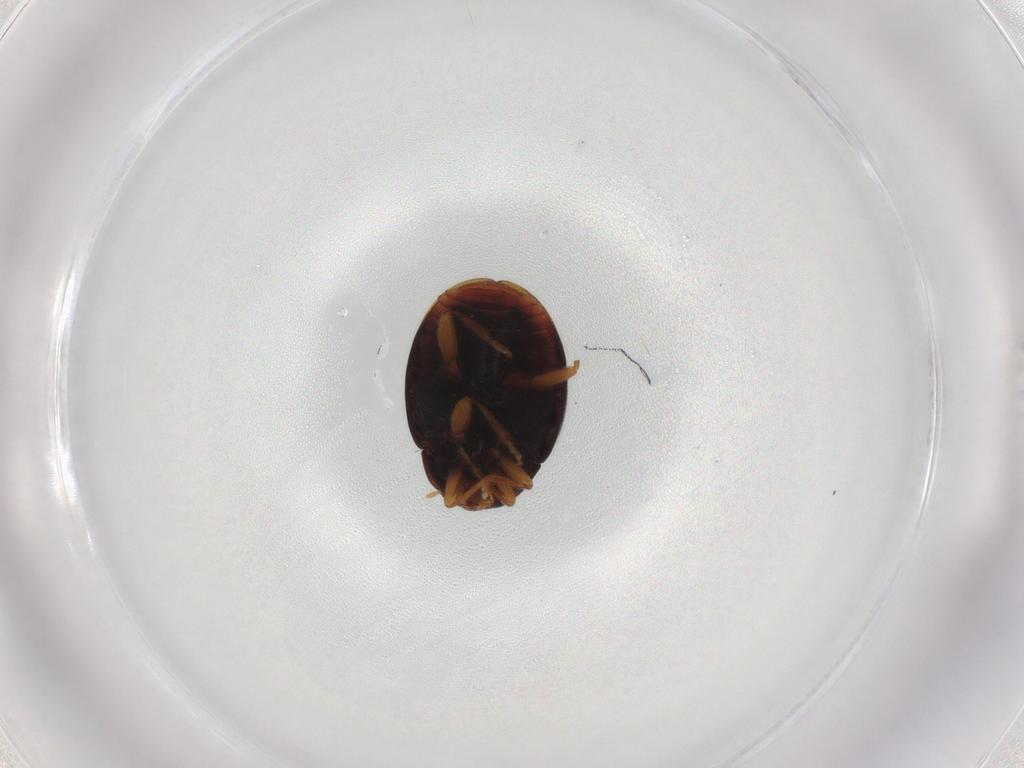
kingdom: Animalia
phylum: Arthropoda
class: Insecta
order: Coleoptera
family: Coccinellidae
